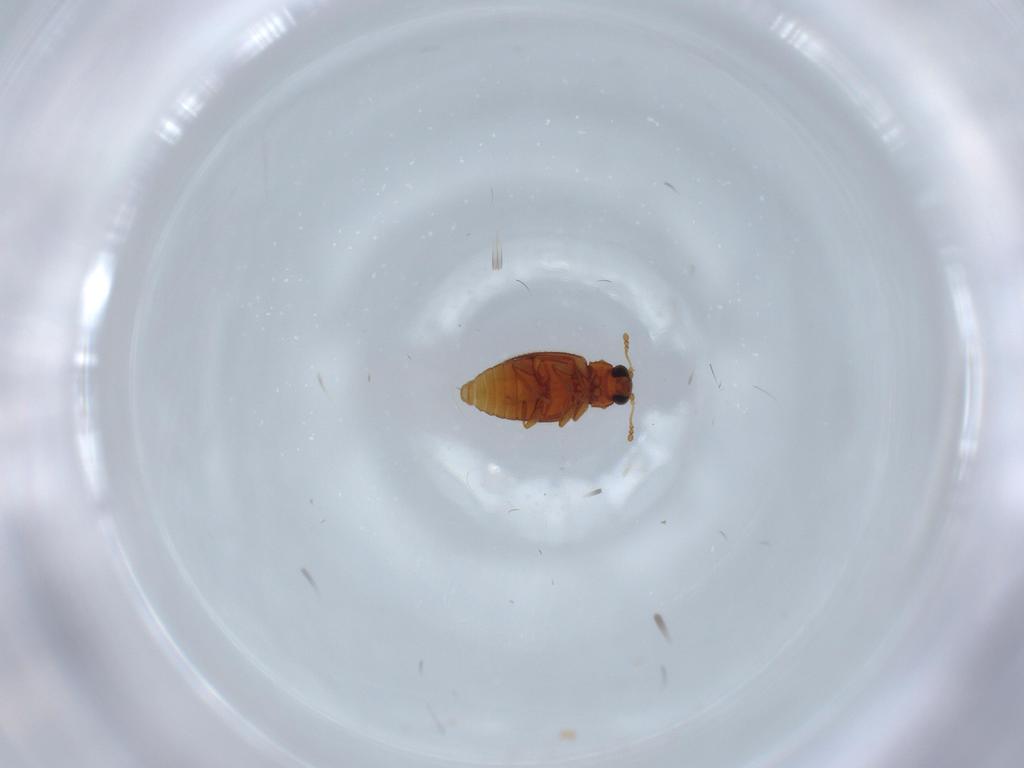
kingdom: Animalia
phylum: Arthropoda
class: Insecta
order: Coleoptera
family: Latridiidae
